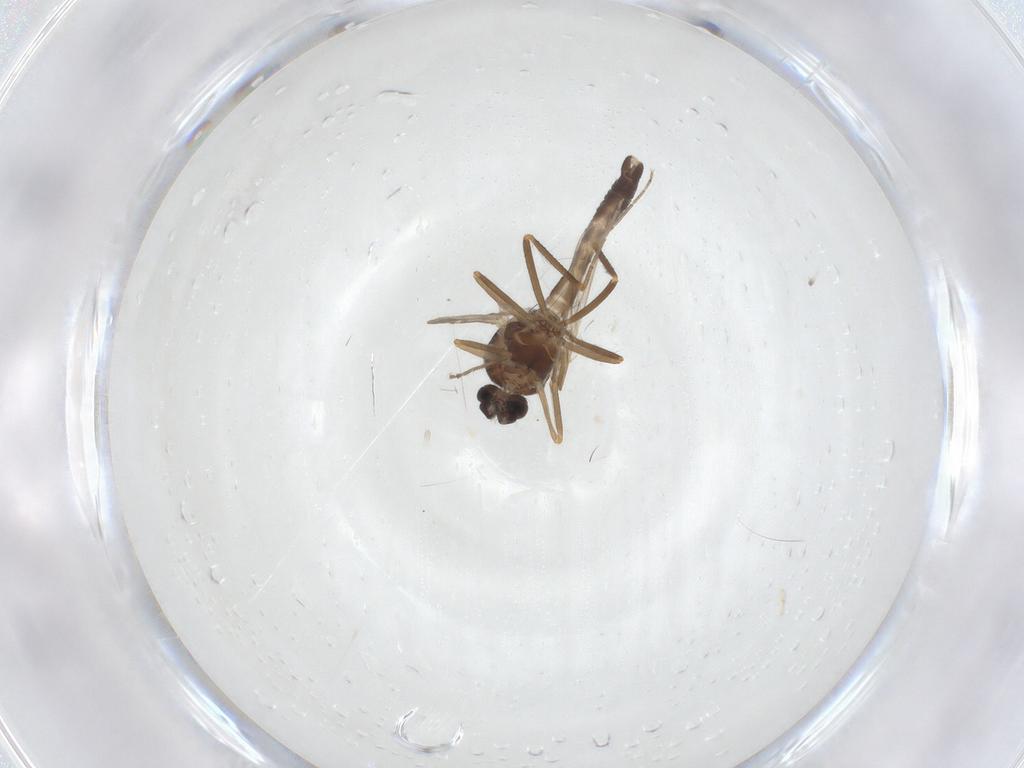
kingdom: Animalia
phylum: Arthropoda
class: Insecta
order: Diptera
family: Ceratopogonidae
